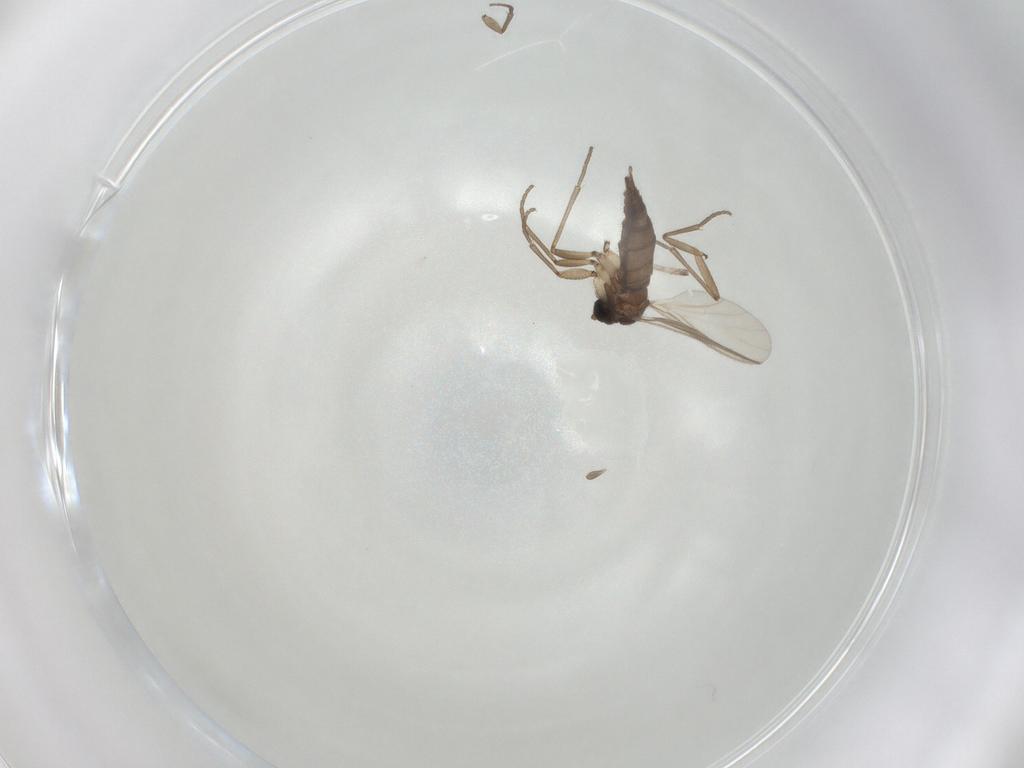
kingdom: Animalia
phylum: Arthropoda
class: Insecta
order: Diptera
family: Sciaridae
